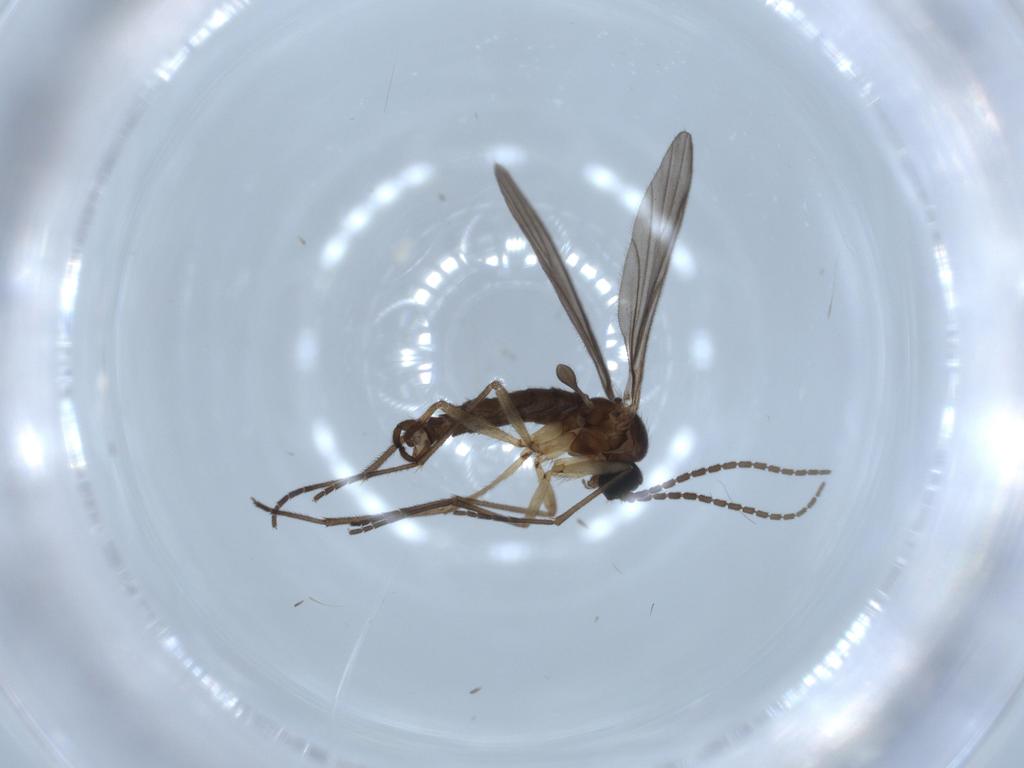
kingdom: Animalia
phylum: Arthropoda
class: Insecta
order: Diptera
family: Sciaridae
